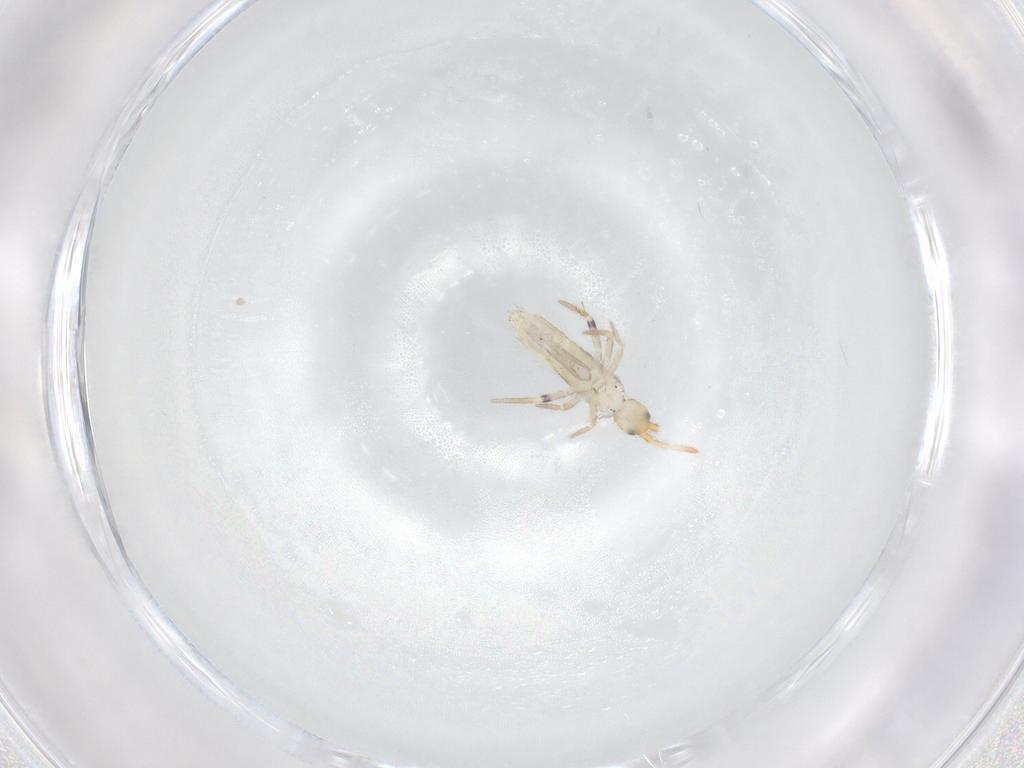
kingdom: Animalia
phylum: Arthropoda
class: Collembola
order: Entomobryomorpha
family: Entomobryidae
